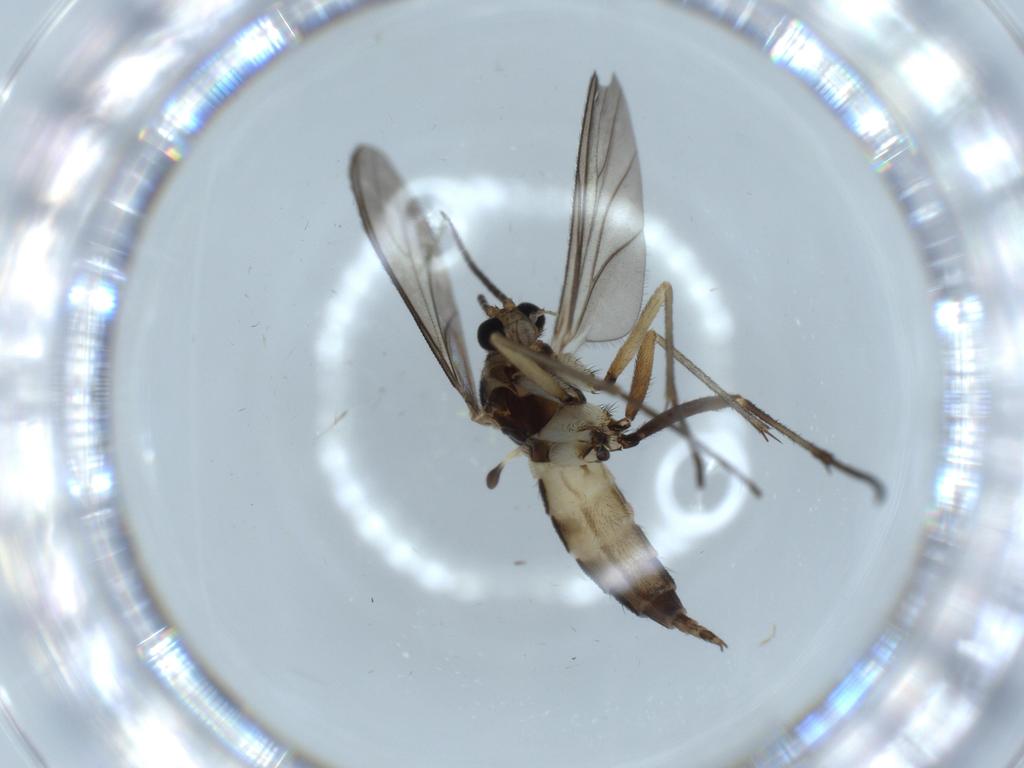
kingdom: Animalia
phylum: Arthropoda
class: Insecta
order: Diptera
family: Sciaridae
